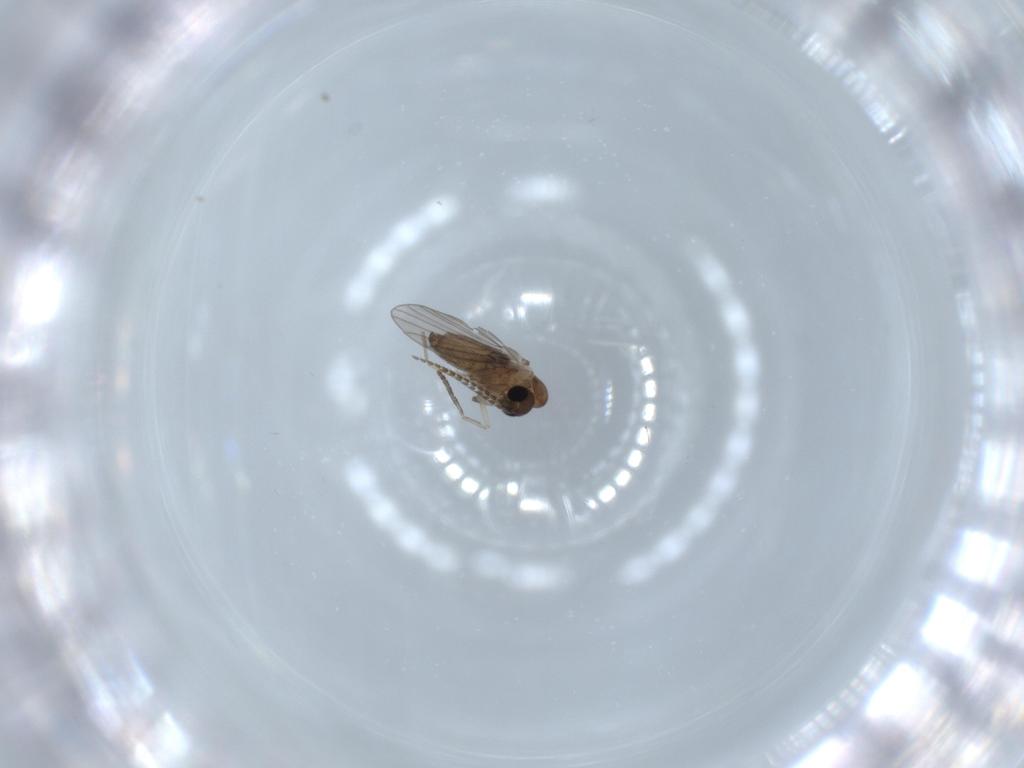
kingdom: Animalia
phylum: Arthropoda
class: Insecta
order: Diptera
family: Psychodidae
